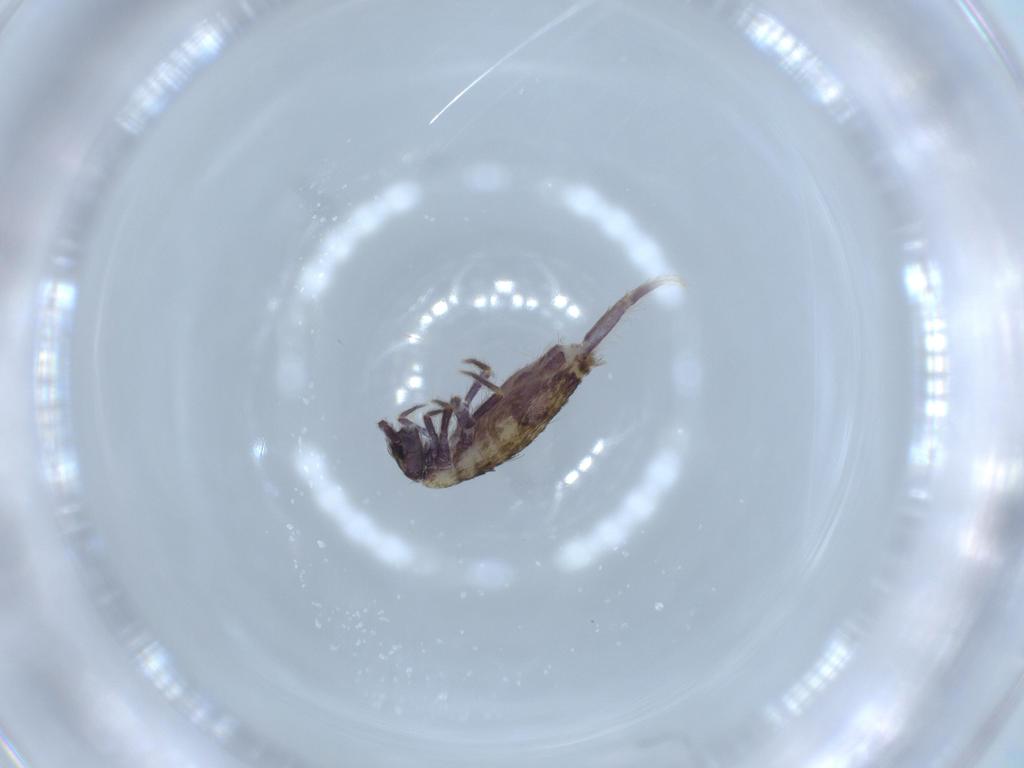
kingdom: Animalia
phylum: Arthropoda
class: Collembola
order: Entomobryomorpha
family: Entomobryidae
